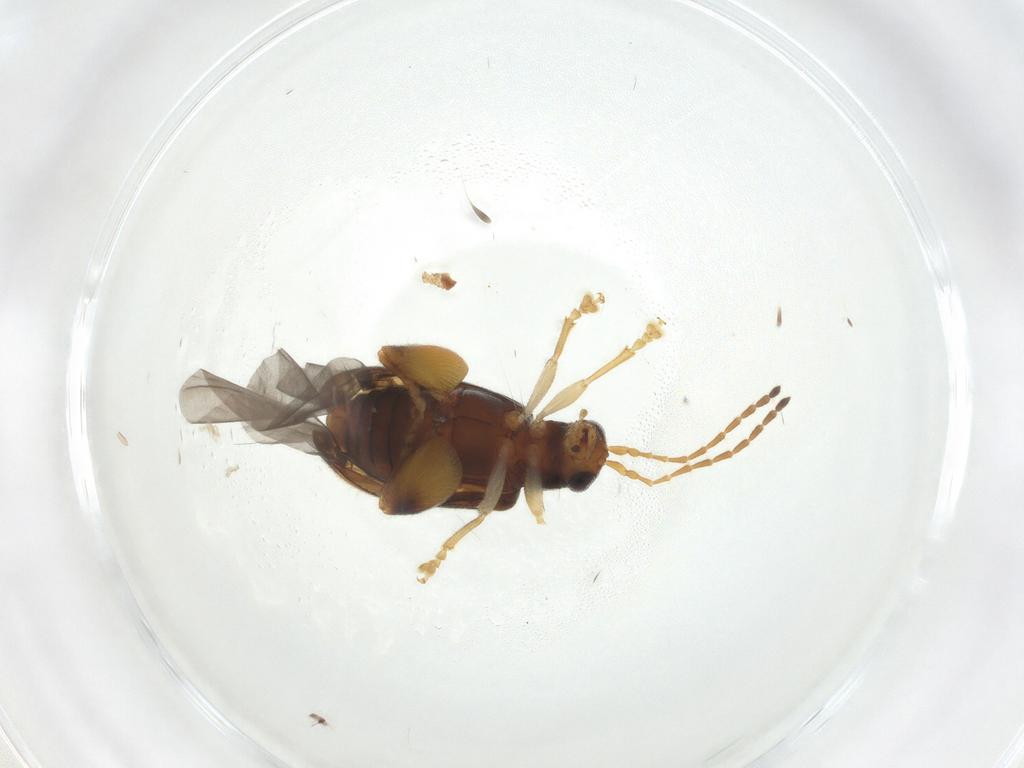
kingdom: Animalia
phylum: Arthropoda
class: Insecta
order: Coleoptera
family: Chrysomelidae
